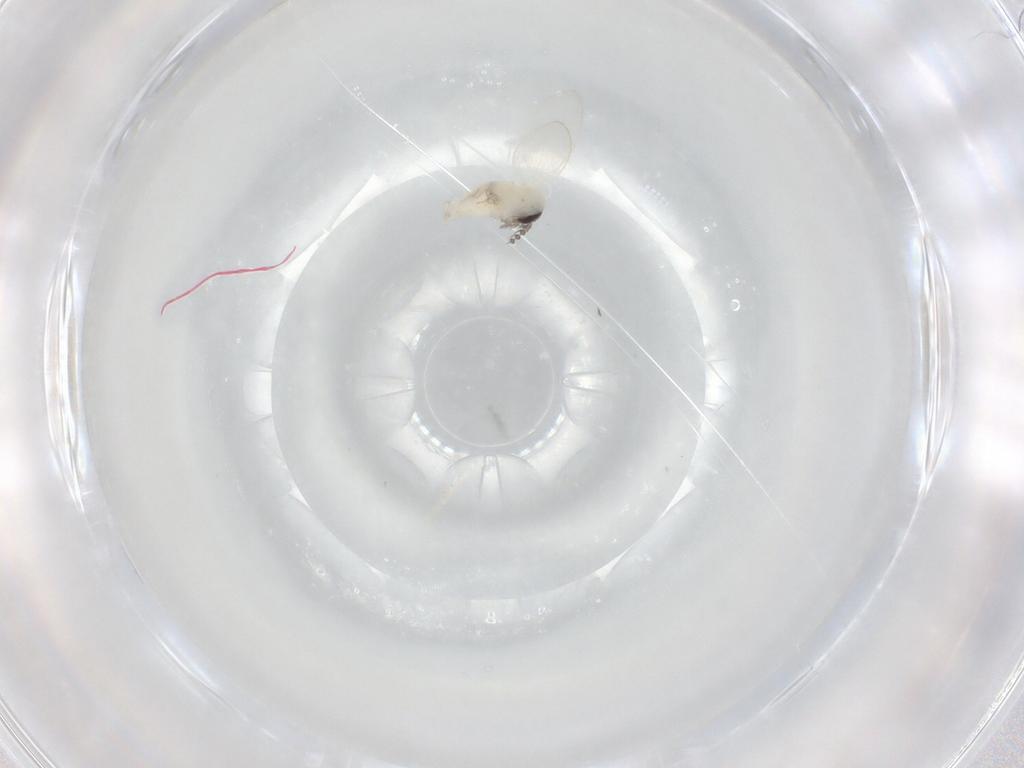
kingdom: Animalia
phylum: Arthropoda
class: Insecta
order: Diptera
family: Psychodidae
